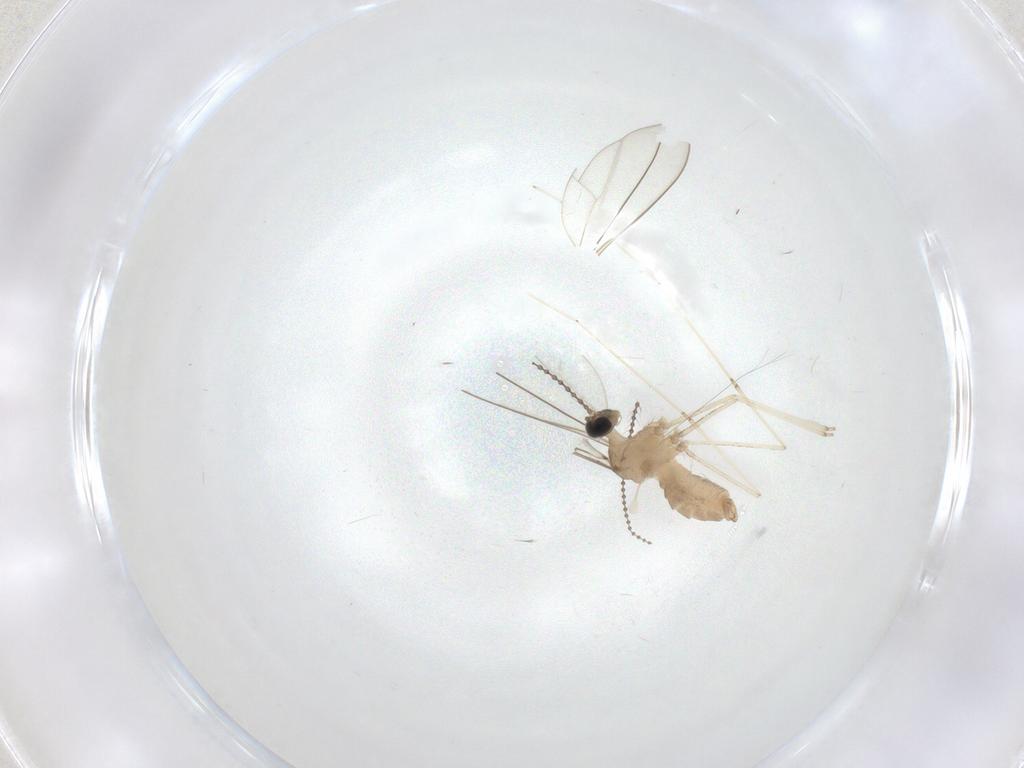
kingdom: Animalia
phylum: Arthropoda
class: Insecta
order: Diptera
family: Cecidomyiidae
